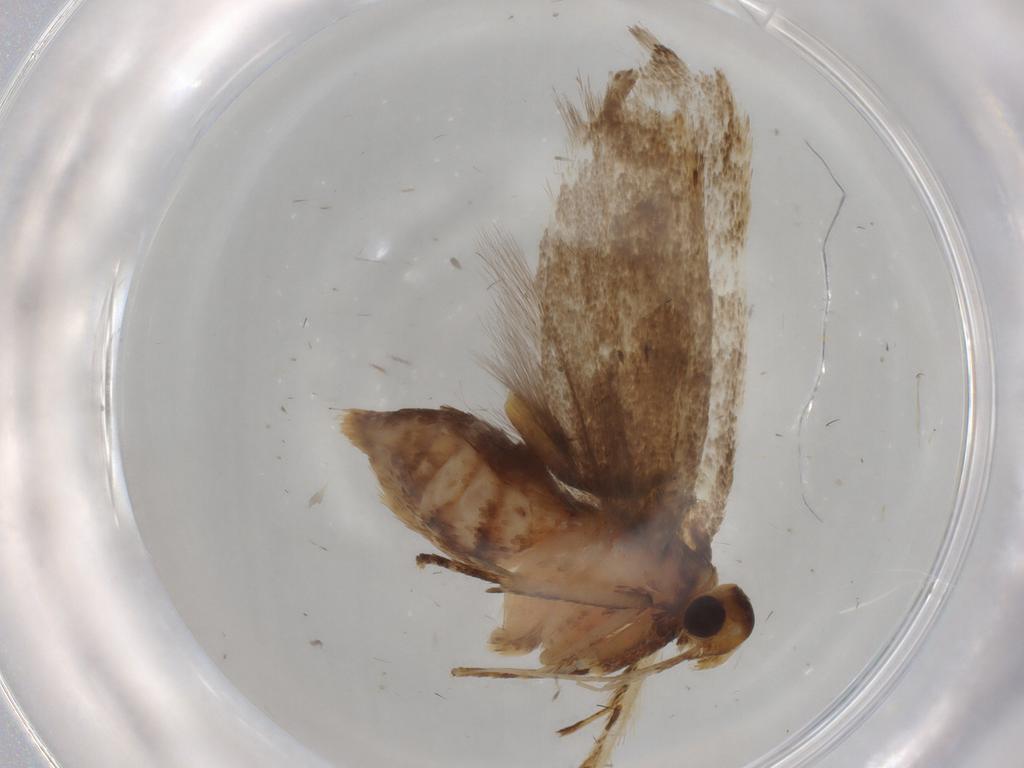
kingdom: Animalia
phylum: Arthropoda
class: Insecta
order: Lepidoptera
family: Lecithoceridae
